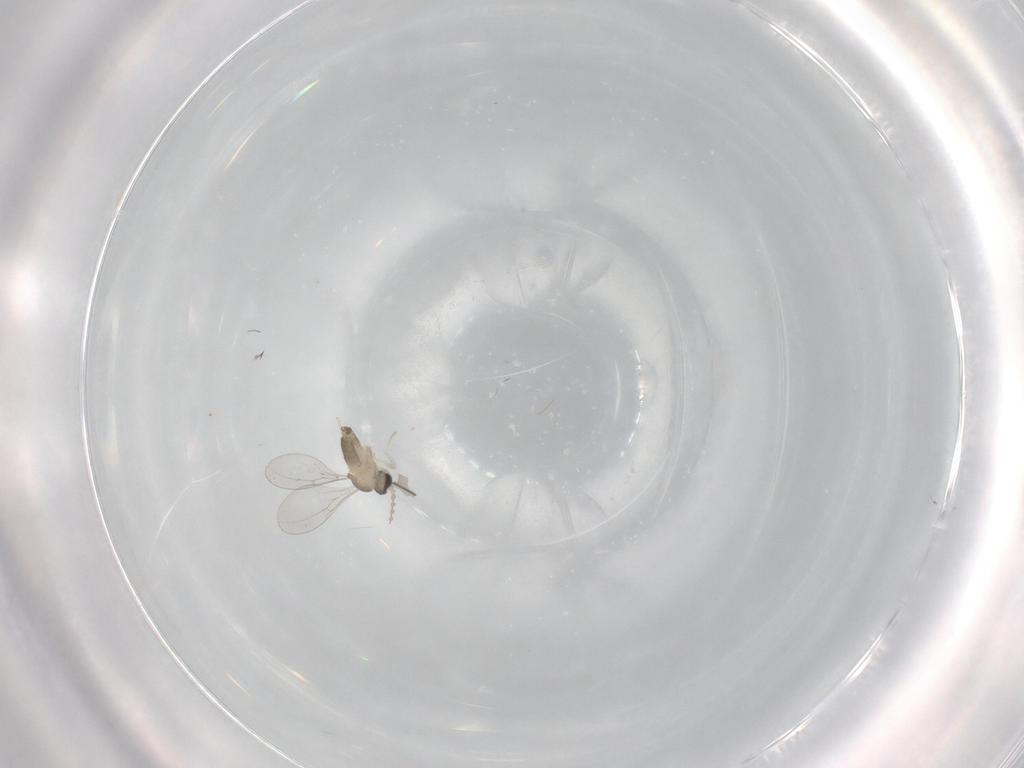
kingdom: Animalia
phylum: Arthropoda
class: Insecta
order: Diptera
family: Cecidomyiidae
